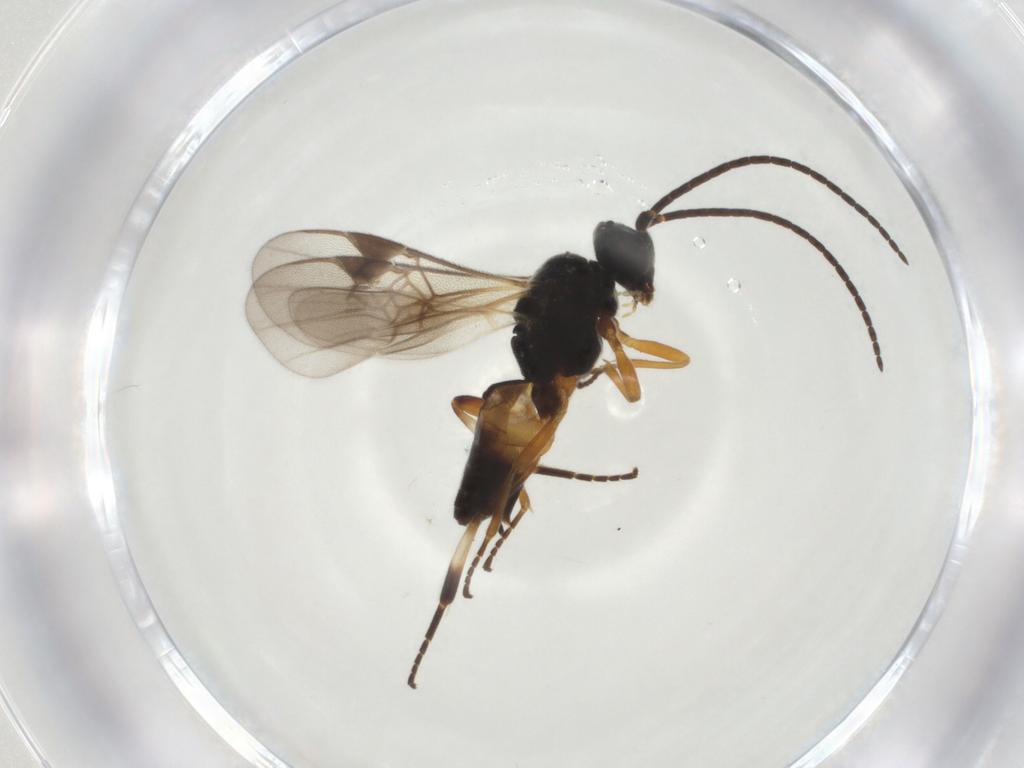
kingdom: Animalia
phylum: Arthropoda
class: Insecta
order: Hymenoptera
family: Braconidae
